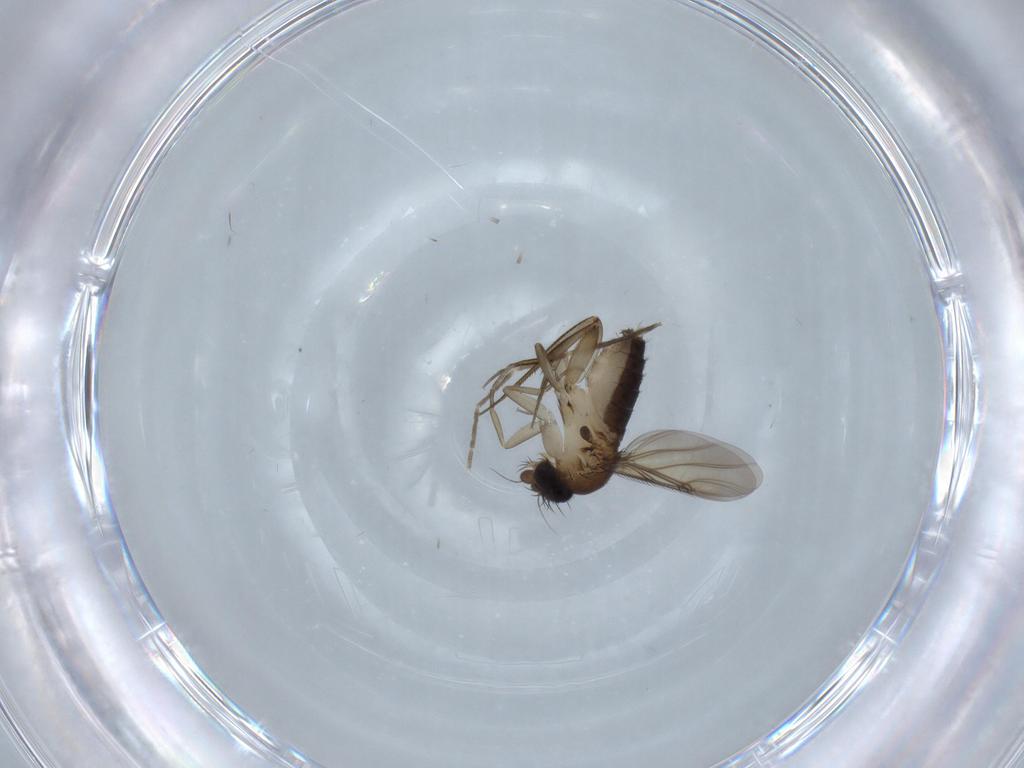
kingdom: Animalia
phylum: Arthropoda
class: Insecta
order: Diptera
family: Phoridae
